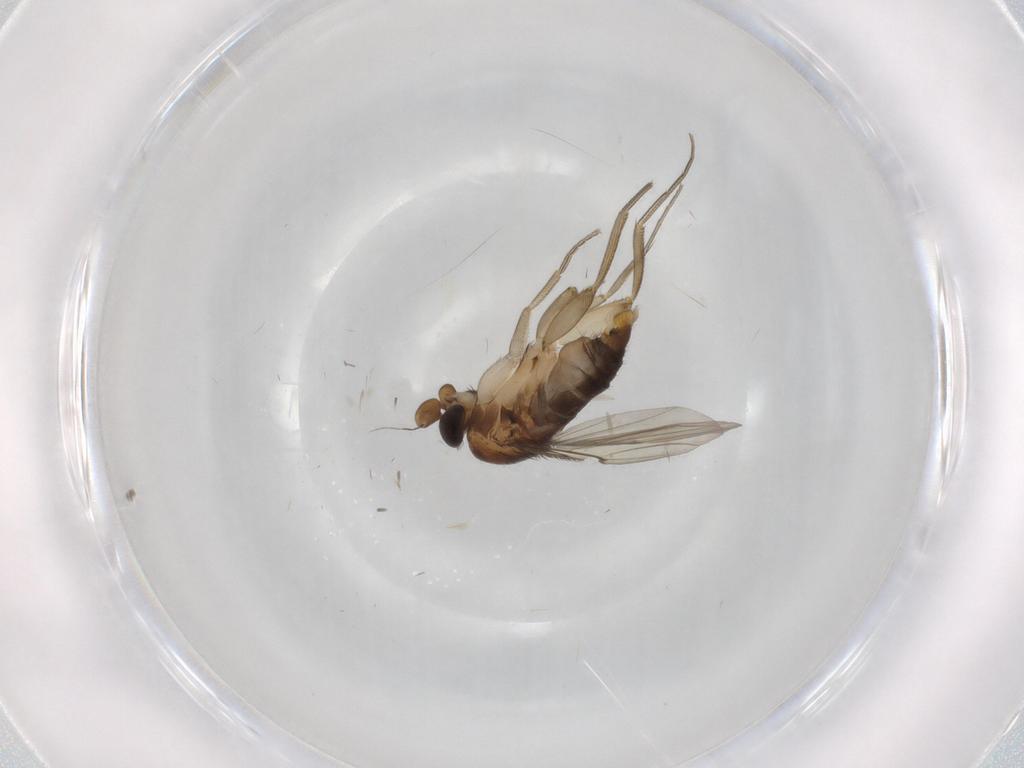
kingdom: Animalia
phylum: Arthropoda
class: Insecta
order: Diptera
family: Phoridae
